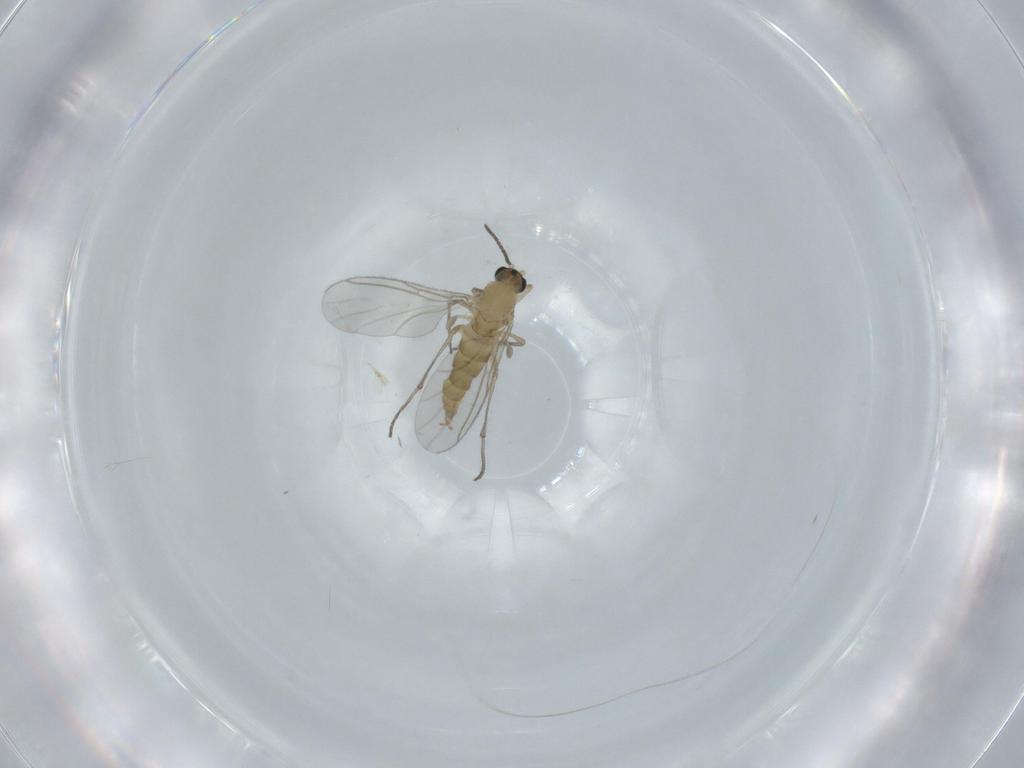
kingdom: Animalia
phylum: Arthropoda
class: Insecta
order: Diptera
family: Sciaridae
